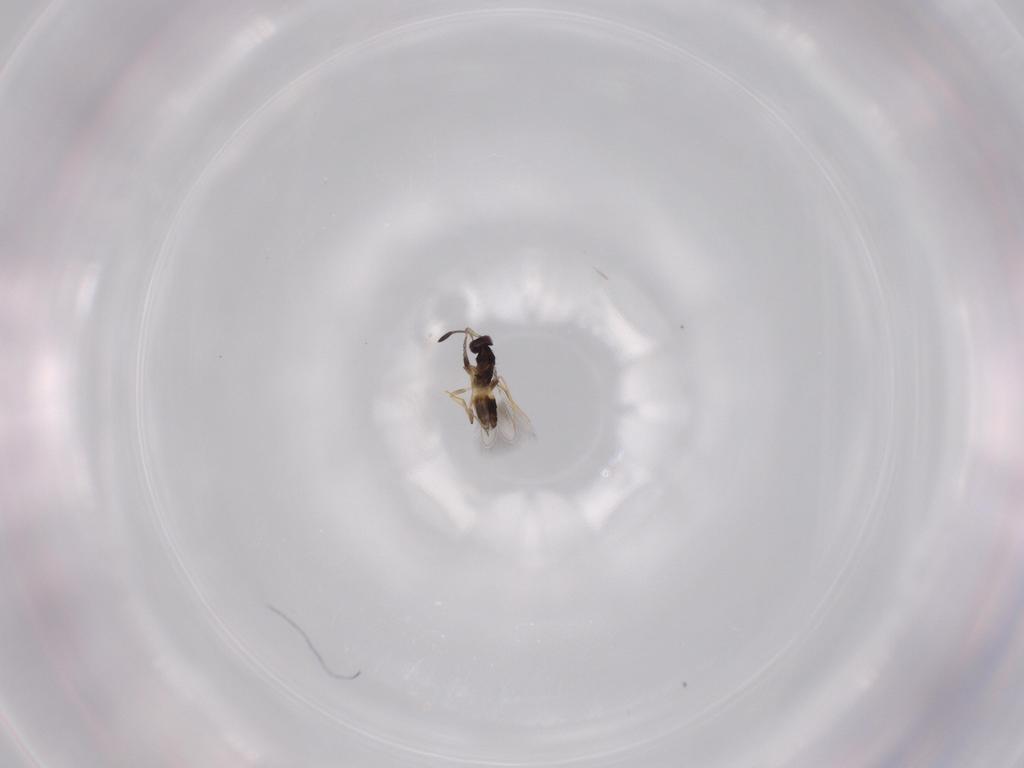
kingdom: Animalia
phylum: Arthropoda
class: Insecta
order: Hymenoptera
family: Mymaridae
